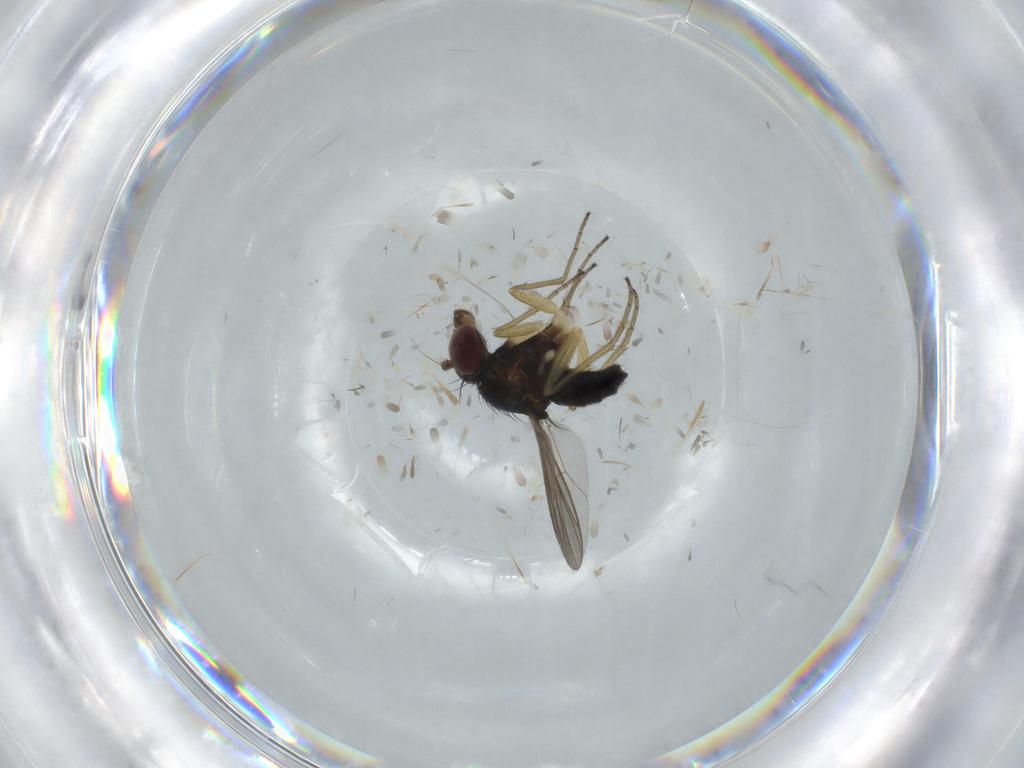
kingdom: Animalia
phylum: Arthropoda
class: Insecta
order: Diptera
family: Dolichopodidae
